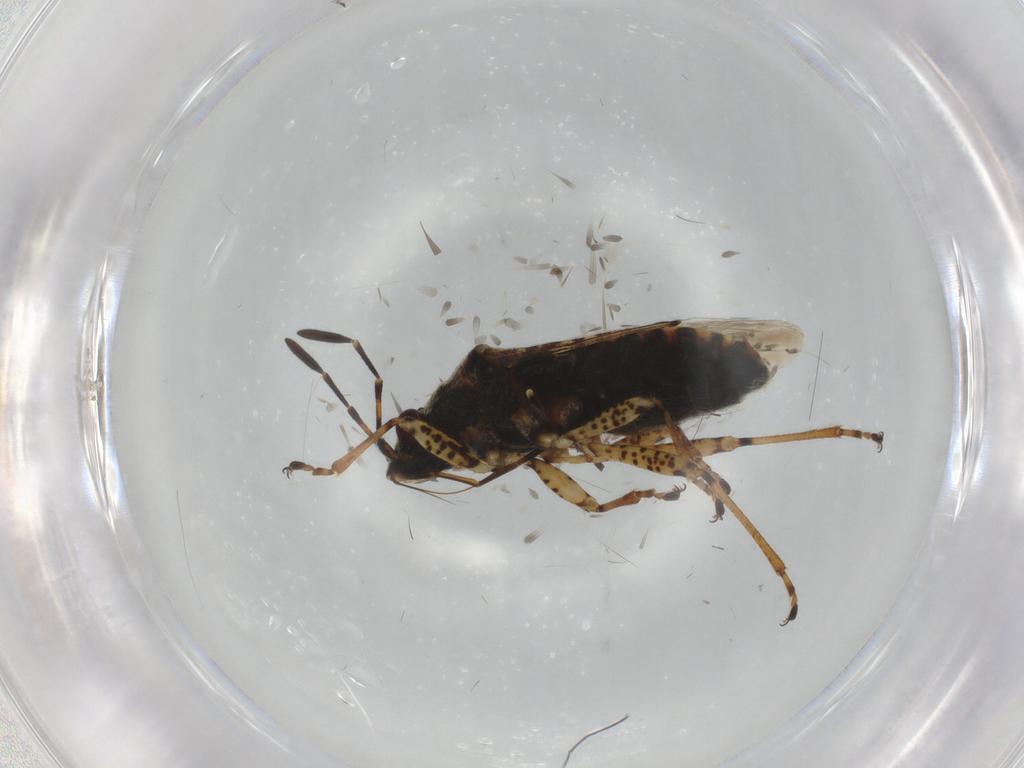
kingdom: Animalia
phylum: Arthropoda
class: Insecta
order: Hemiptera
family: Lygaeidae
